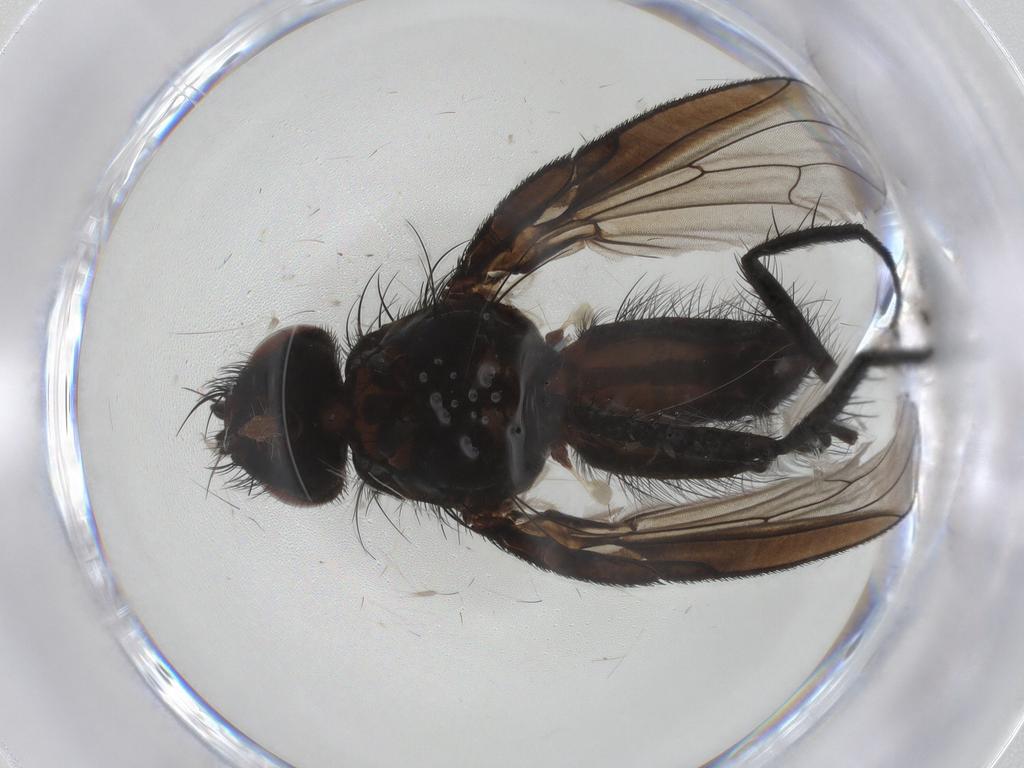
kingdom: Animalia
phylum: Arthropoda
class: Insecta
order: Diptera
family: Anthomyiidae
